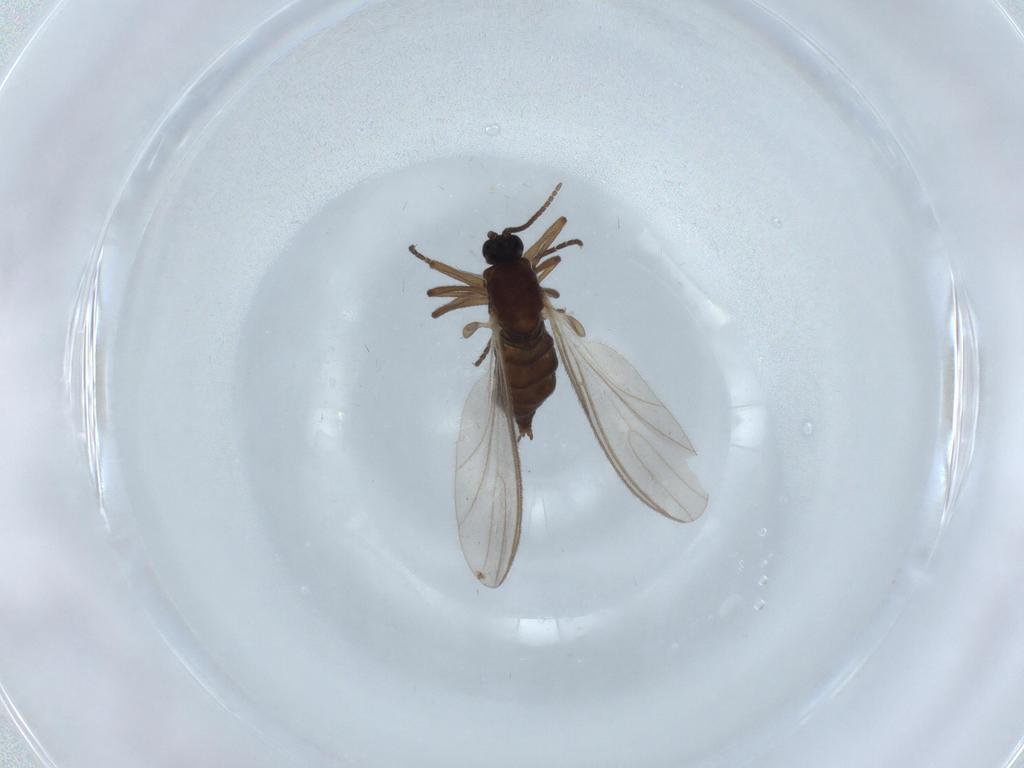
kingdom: Animalia
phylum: Arthropoda
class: Insecta
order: Diptera
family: Sciaridae
